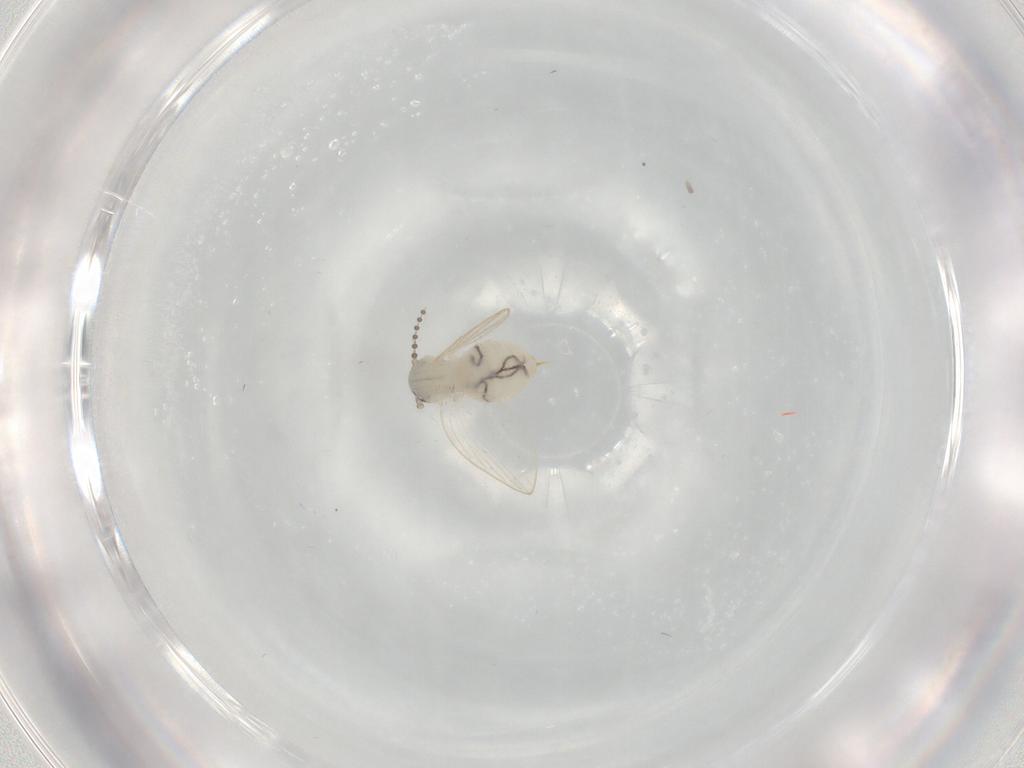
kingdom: Animalia
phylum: Arthropoda
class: Insecta
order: Diptera
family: Psychodidae
